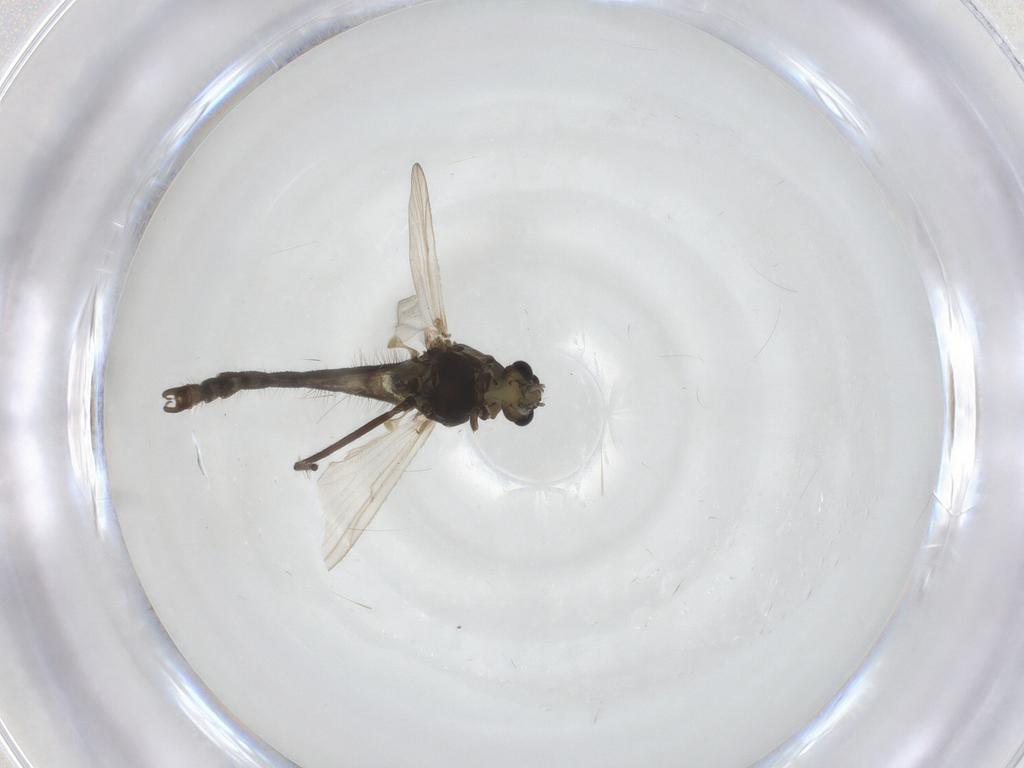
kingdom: Animalia
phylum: Arthropoda
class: Insecta
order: Diptera
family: Chironomidae
